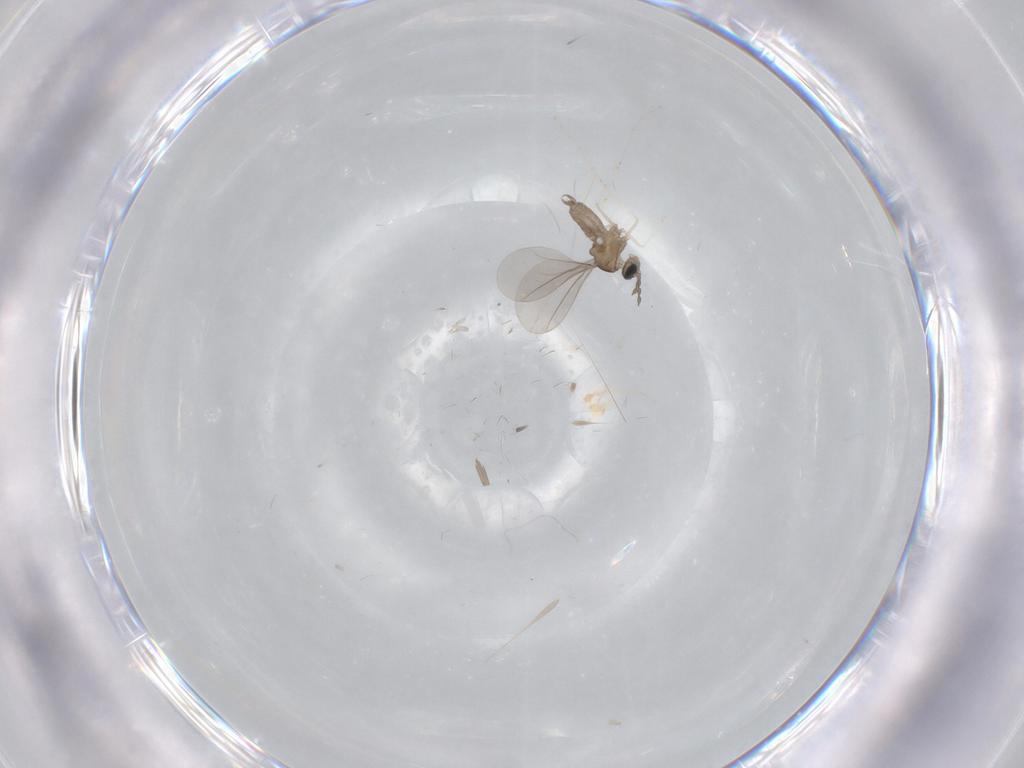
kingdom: Animalia
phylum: Arthropoda
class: Insecta
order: Diptera
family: Cecidomyiidae
